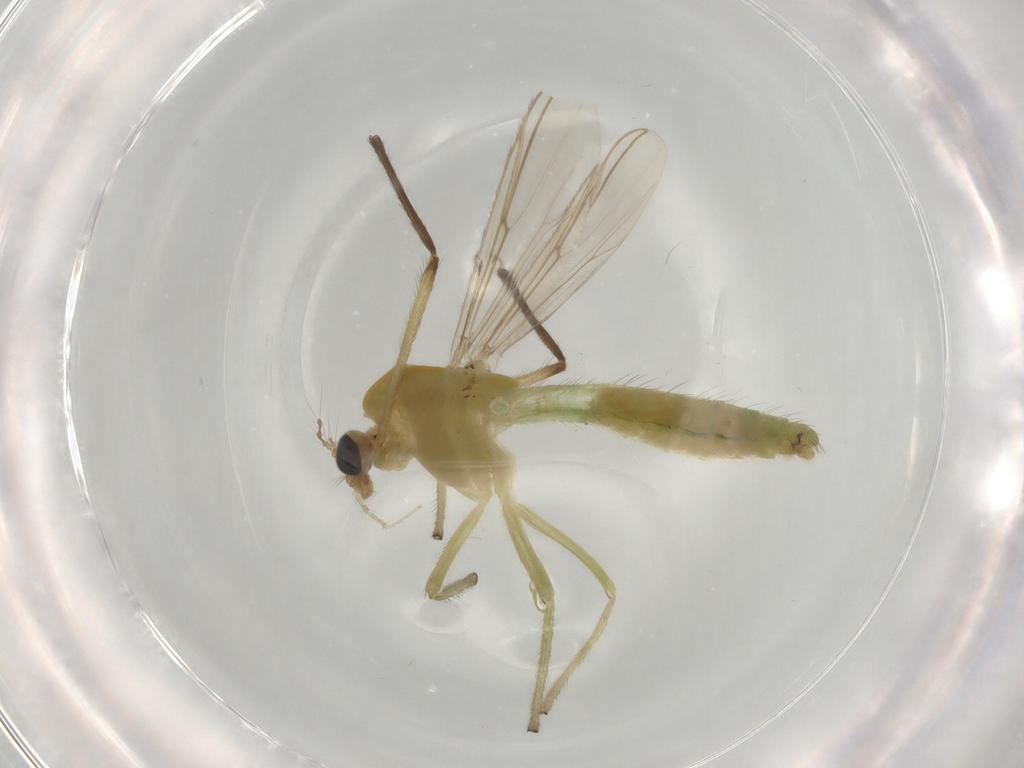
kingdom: Animalia
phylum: Arthropoda
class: Insecta
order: Diptera
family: Chironomidae
